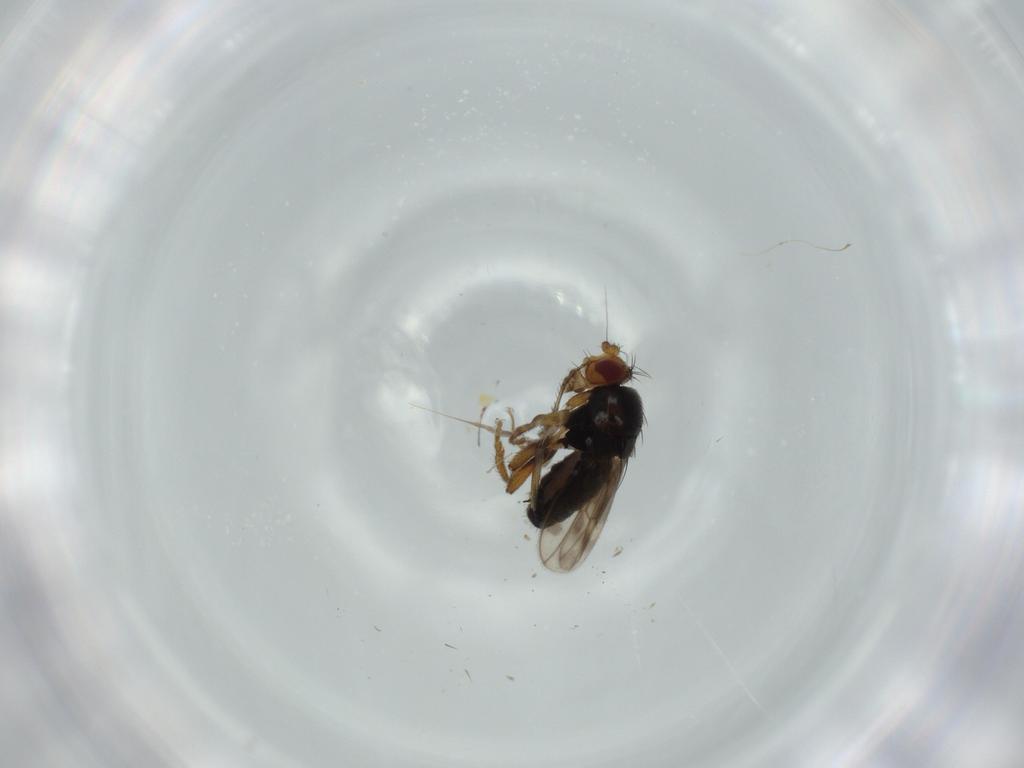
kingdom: Animalia
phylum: Arthropoda
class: Insecta
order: Diptera
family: Sphaeroceridae
